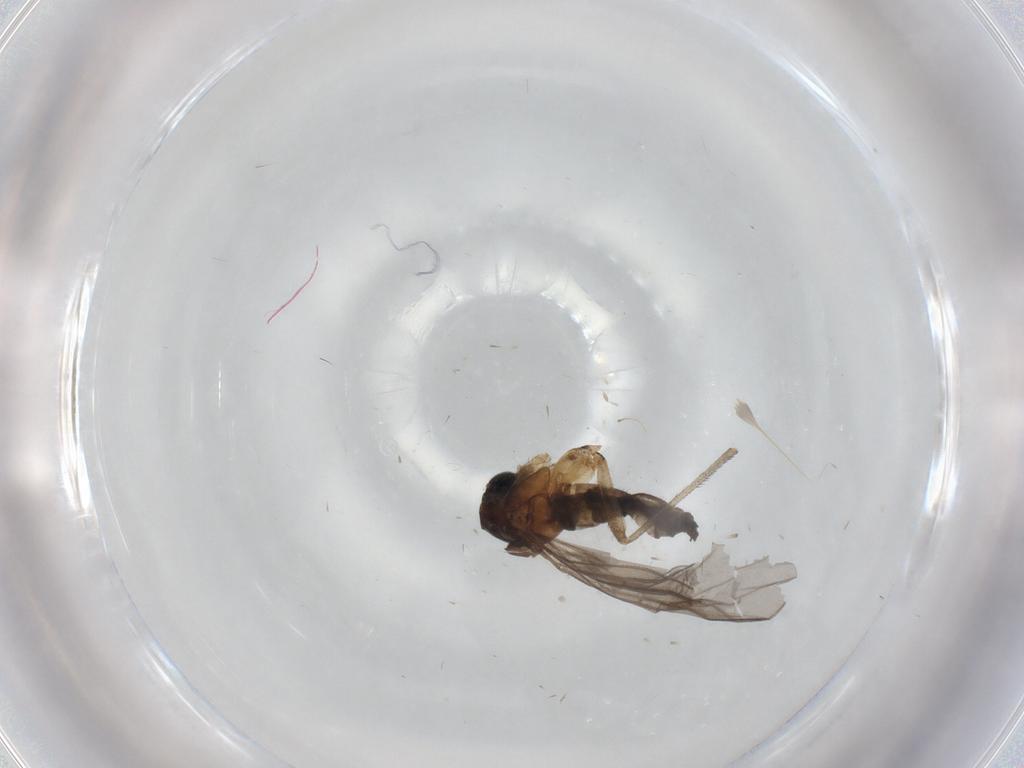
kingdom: Animalia
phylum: Arthropoda
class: Insecta
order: Diptera
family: Sciaridae
